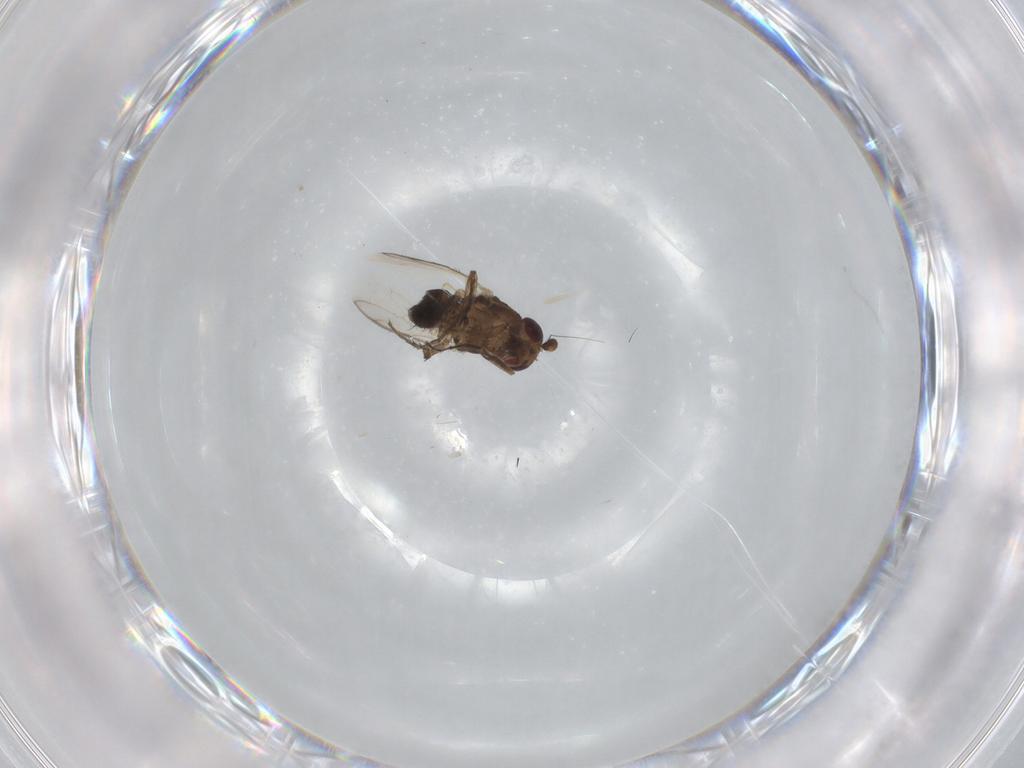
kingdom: Animalia
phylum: Arthropoda
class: Insecta
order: Diptera
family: Sphaeroceridae
